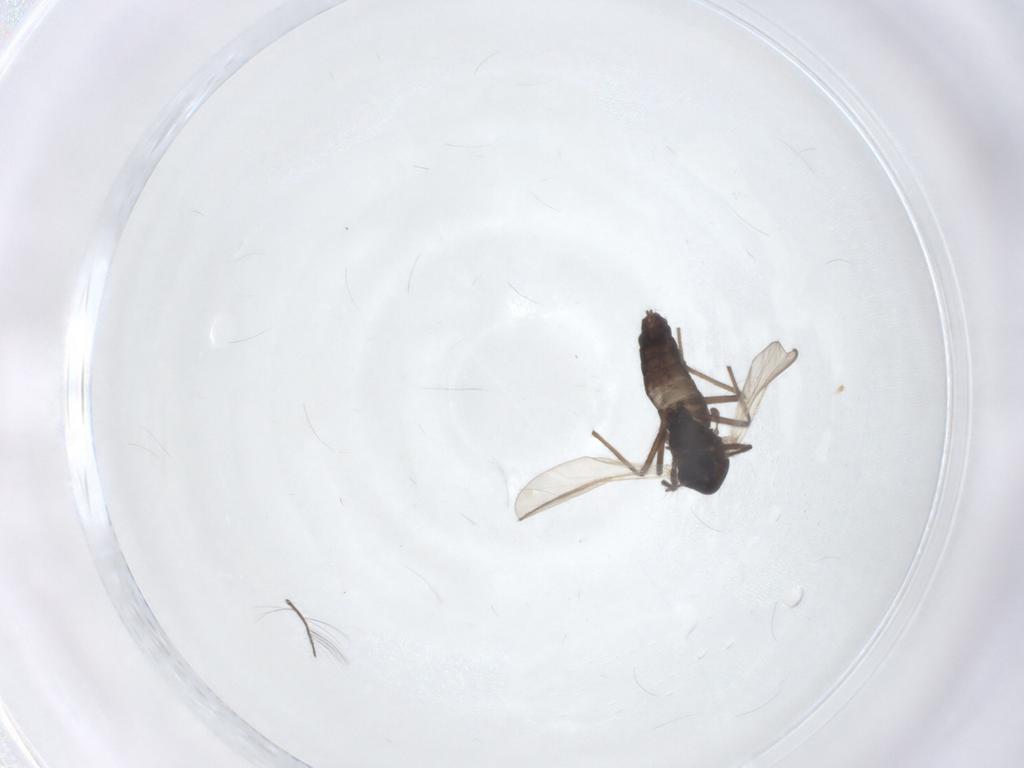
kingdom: Animalia
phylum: Arthropoda
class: Insecta
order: Diptera
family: Chironomidae
